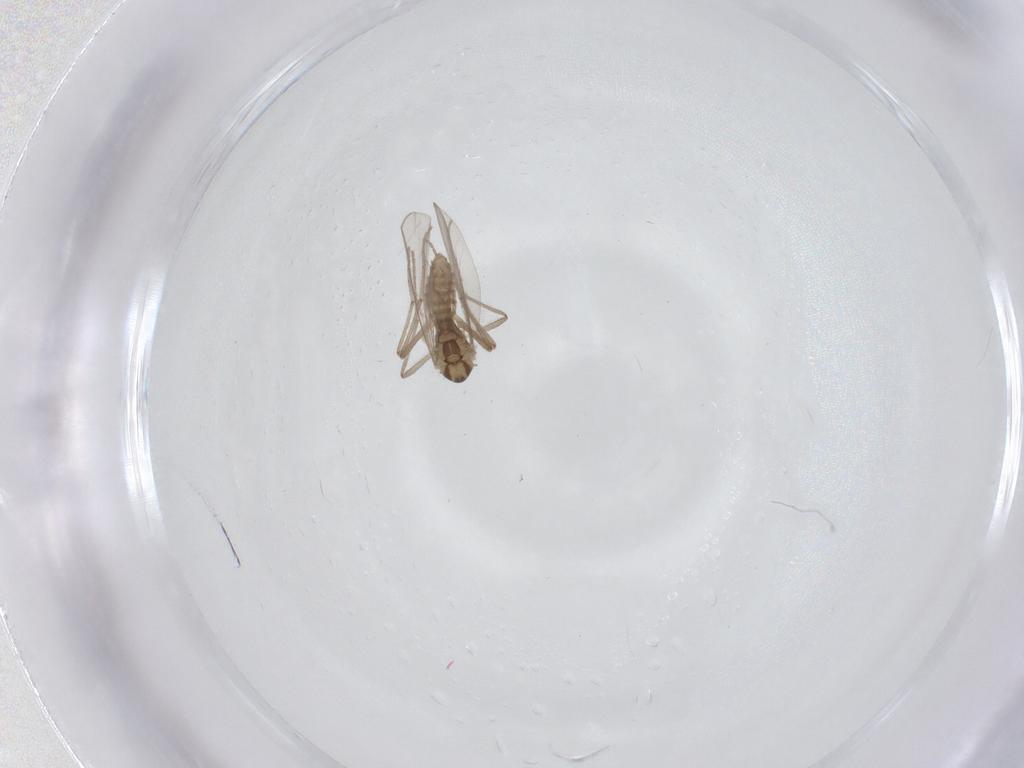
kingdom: Animalia
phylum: Arthropoda
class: Insecta
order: Diptera
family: Chironomidae
